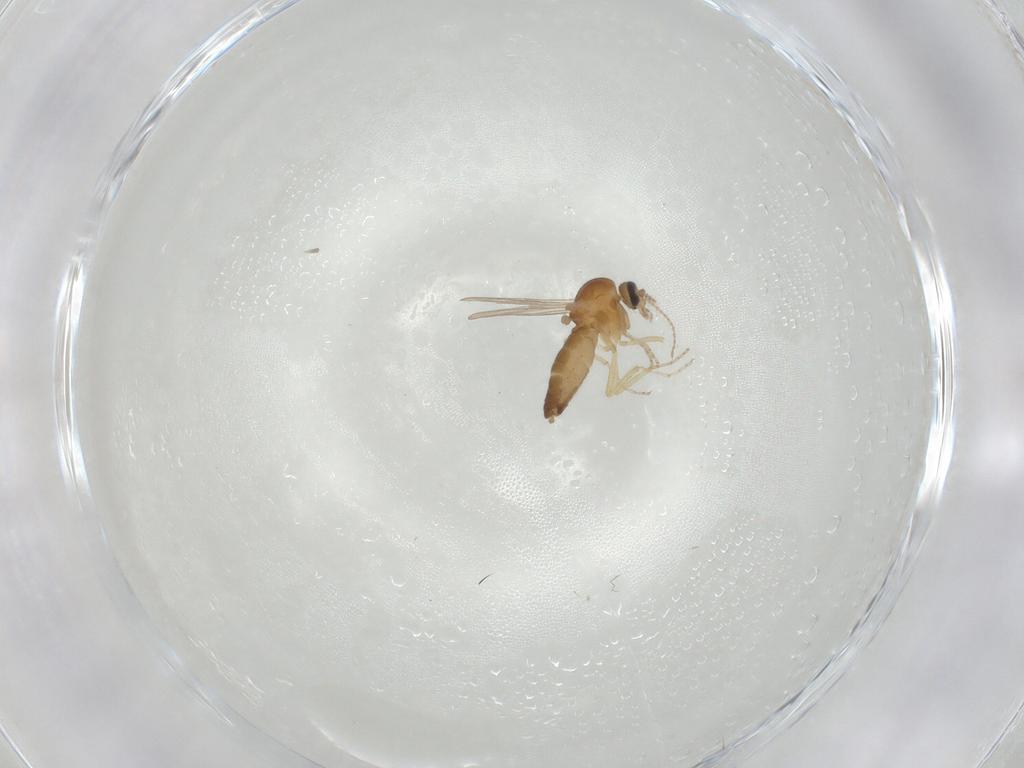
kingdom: Animalia
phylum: Arthropoda
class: Insecta
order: Diptera
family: Ceratopogonidae
